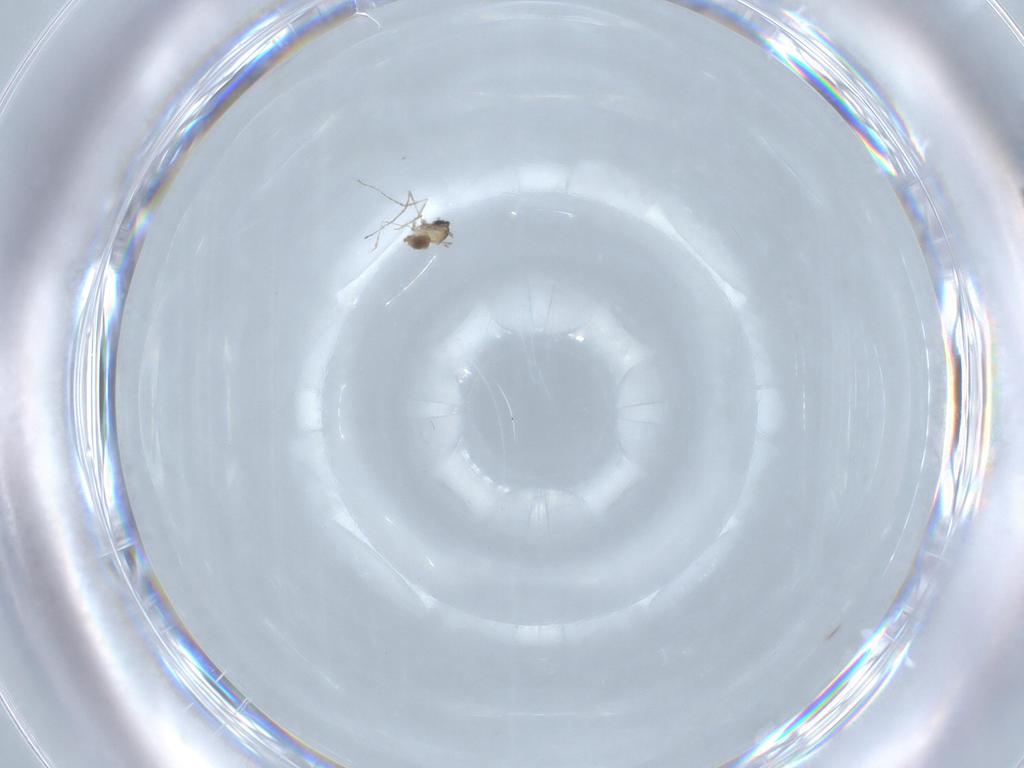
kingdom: Animalia
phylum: Arthropoda
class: Insecta
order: Diptera
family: Cecidomyiidae
